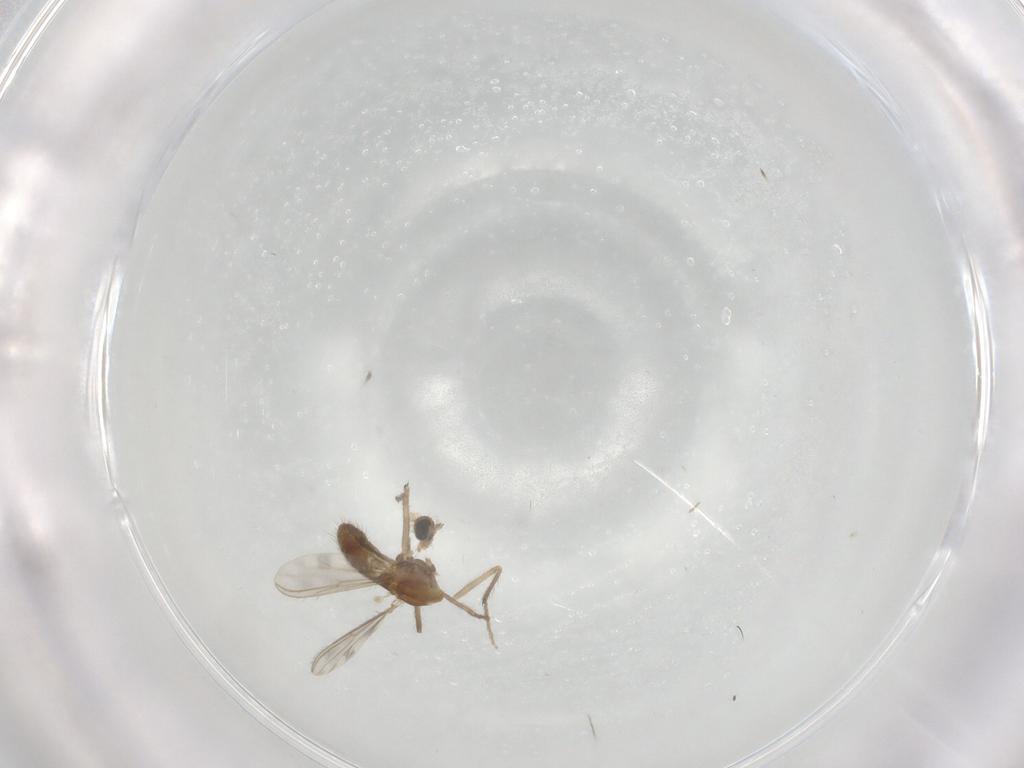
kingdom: Animalia
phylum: Arthropoda
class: Insecta
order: Diptera
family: Chironomidae
